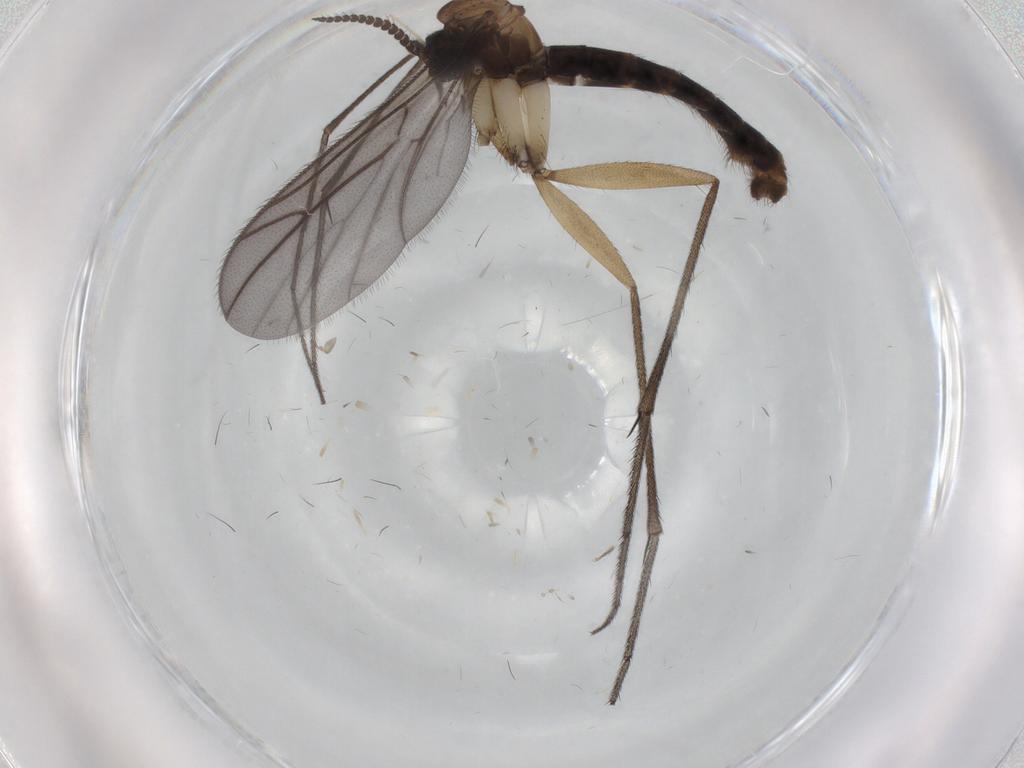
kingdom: Animalia
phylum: Arthropoda
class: Insecta
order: Diptera
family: Phoridae
